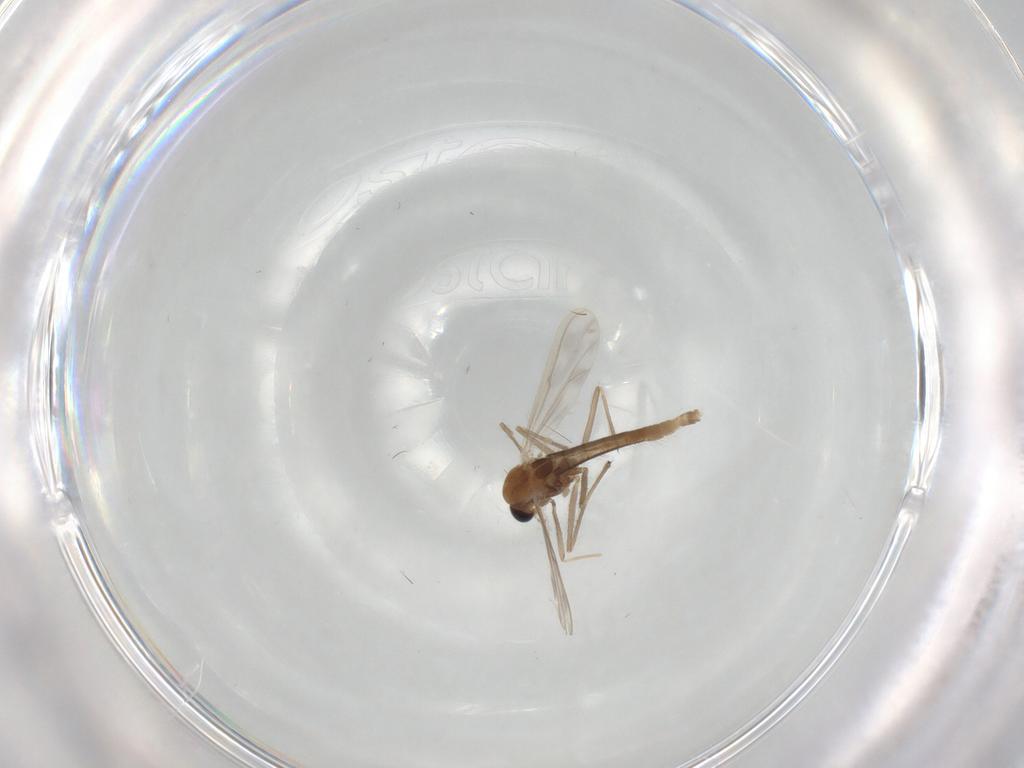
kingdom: Animalia
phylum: Arthropoda
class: Insecta
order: Diptera
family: Chironomidae
